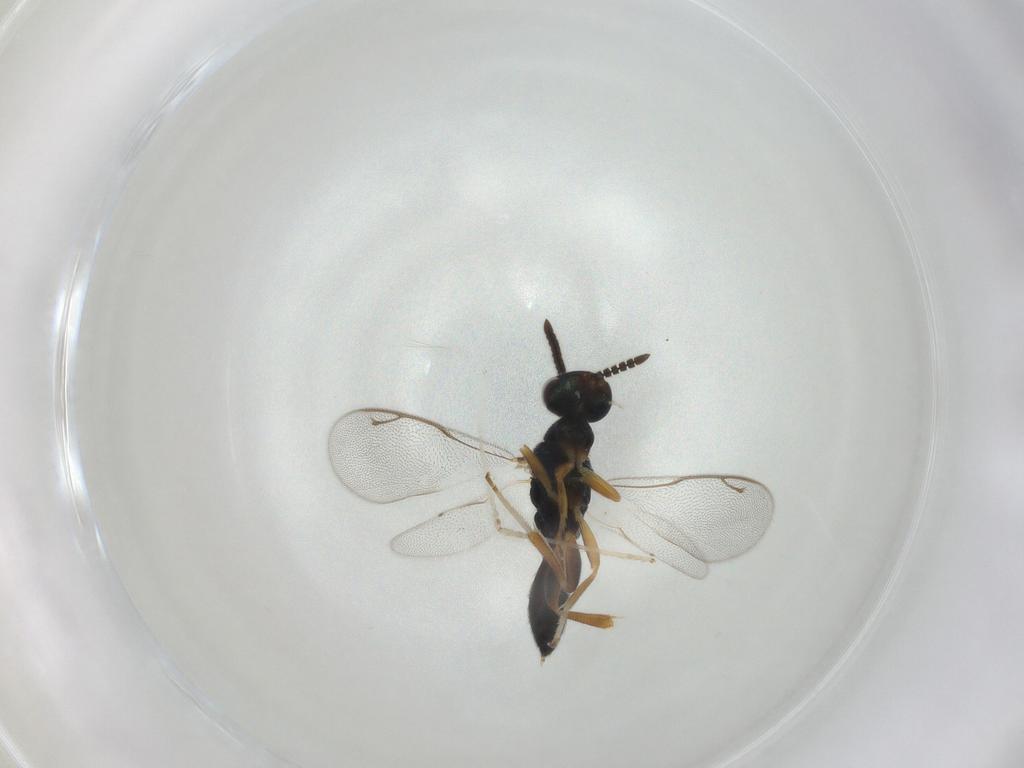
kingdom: Animalia
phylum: Arthropoda
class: Insecta
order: Hymenoptera
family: Cleonyminae
